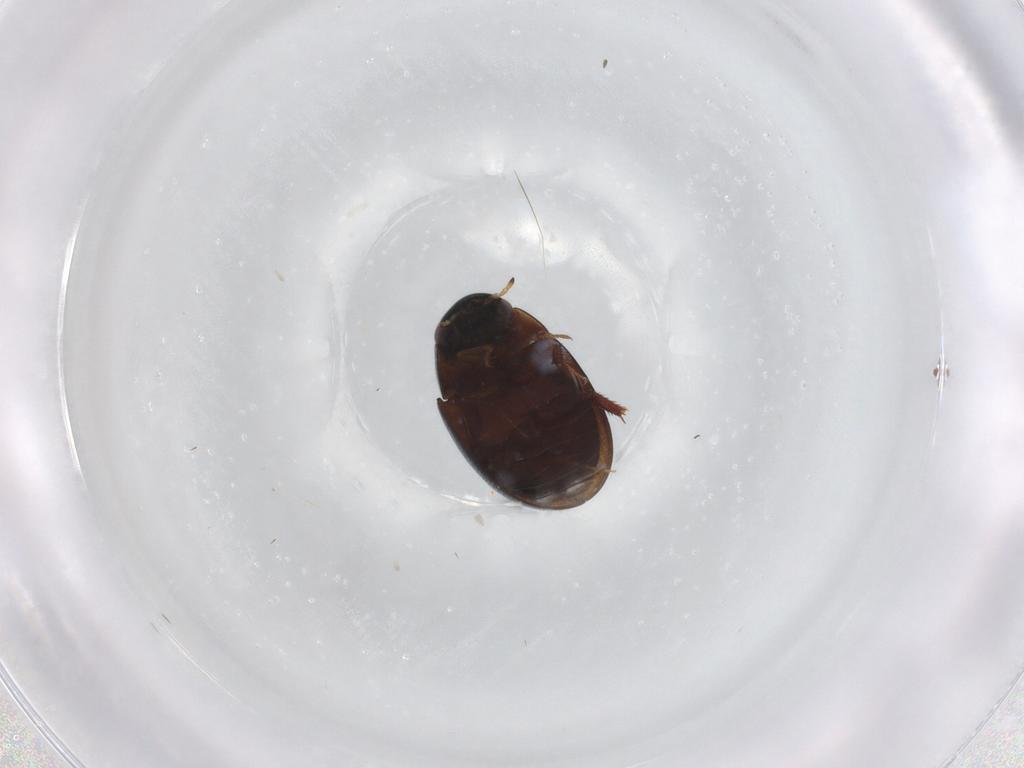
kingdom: Animalia
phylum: Arthropoda
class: Insecta
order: Coleoptera
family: Hydrophilidae
